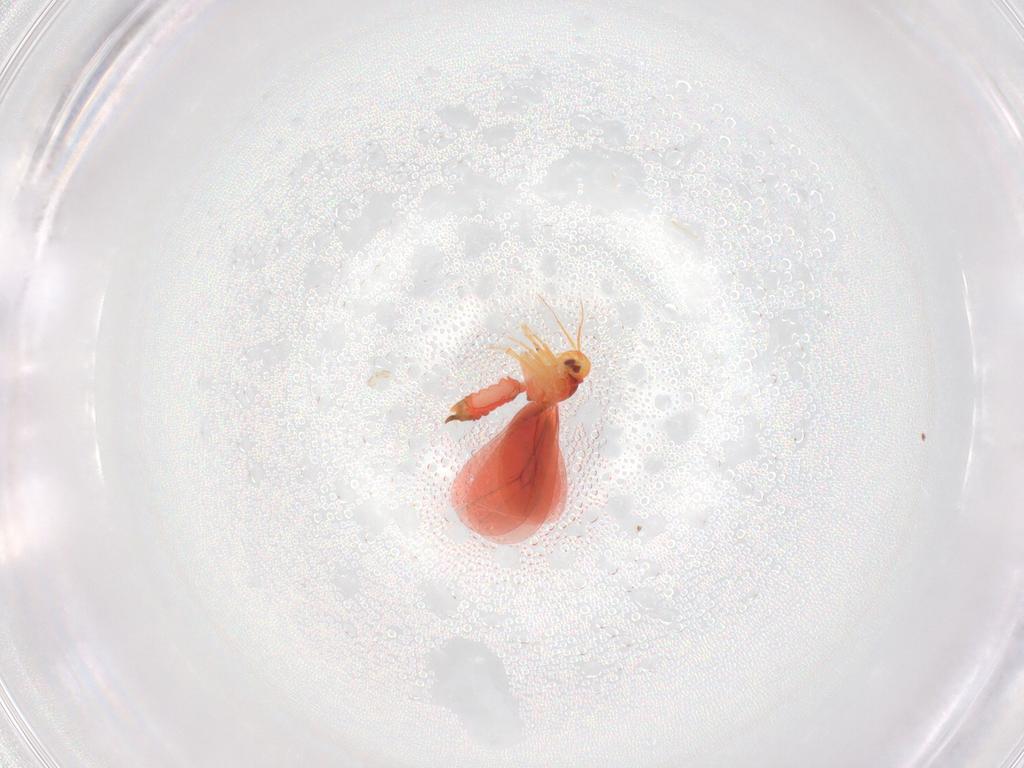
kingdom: Animalia
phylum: Arthropoda
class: Insecta
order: Hemiptera
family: Aleyrodidae
